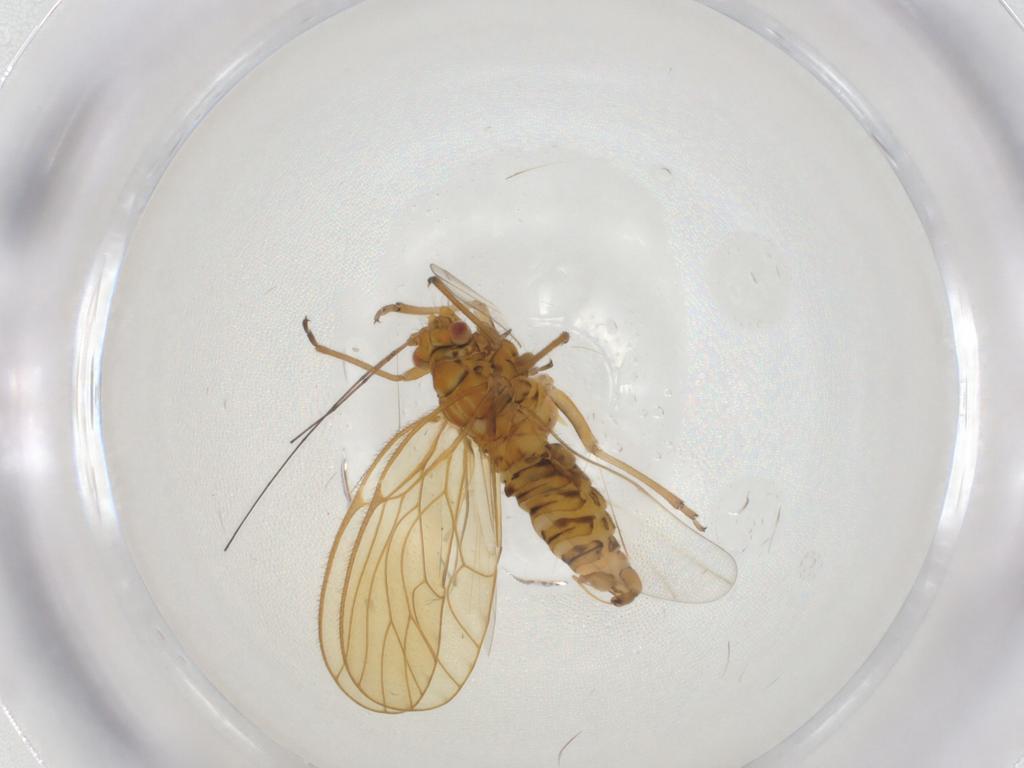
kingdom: Animalia
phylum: Arthropoda
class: Insecta
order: Hemiptera
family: Psyllidae
